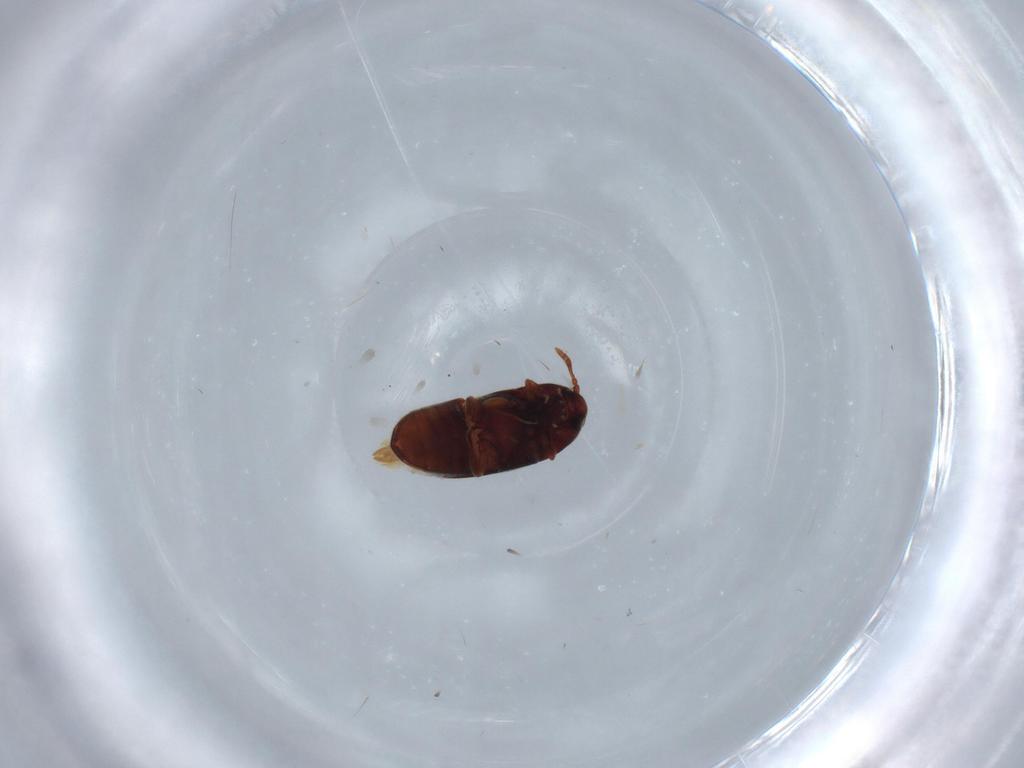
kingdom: Animalia
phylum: Arthropoda
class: Insecta
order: Coleoptera
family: Throscidae
